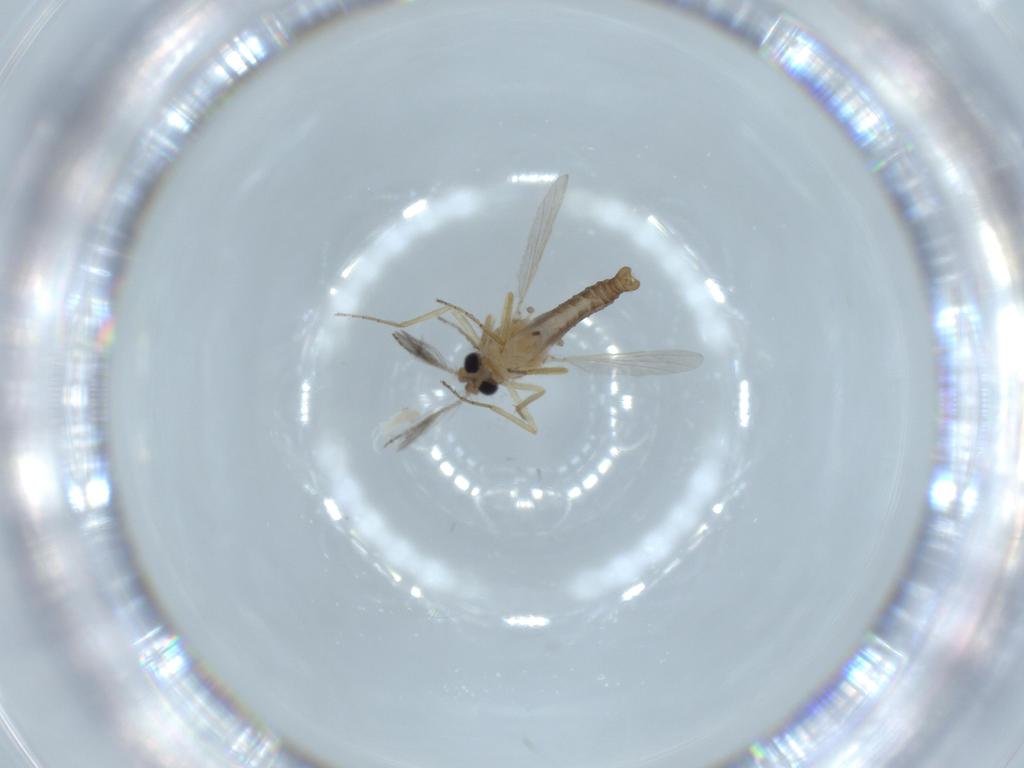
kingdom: Animalia
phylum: Arthropoda
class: Insecta
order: Diptera
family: Ceratopogonidae
